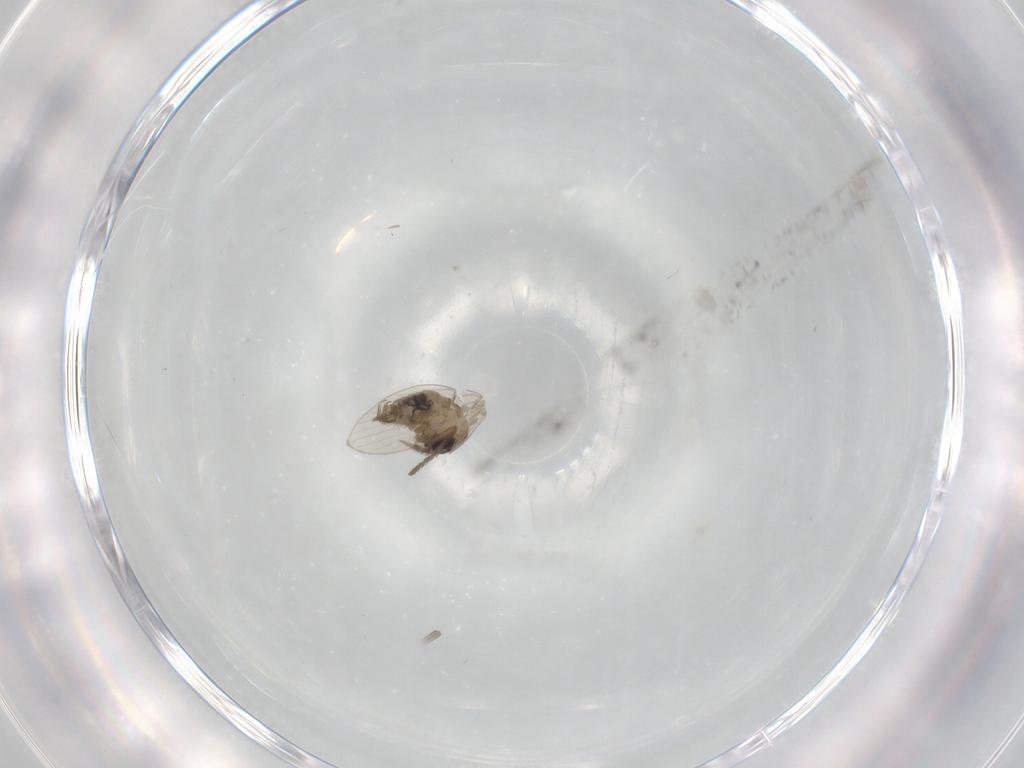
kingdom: Animalia
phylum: Arthropoda
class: Insecta
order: Diptera
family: Psychodidae
